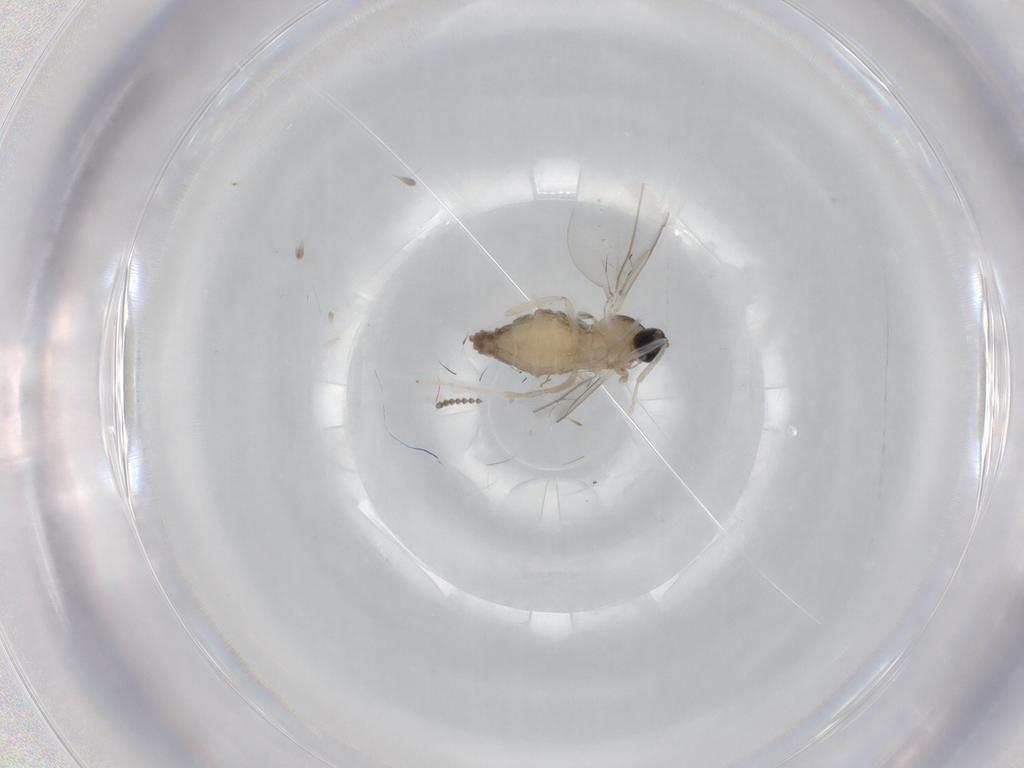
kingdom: Animalia
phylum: Arthropoda
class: Insecta
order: Diptera
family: Cecidomyiidae
